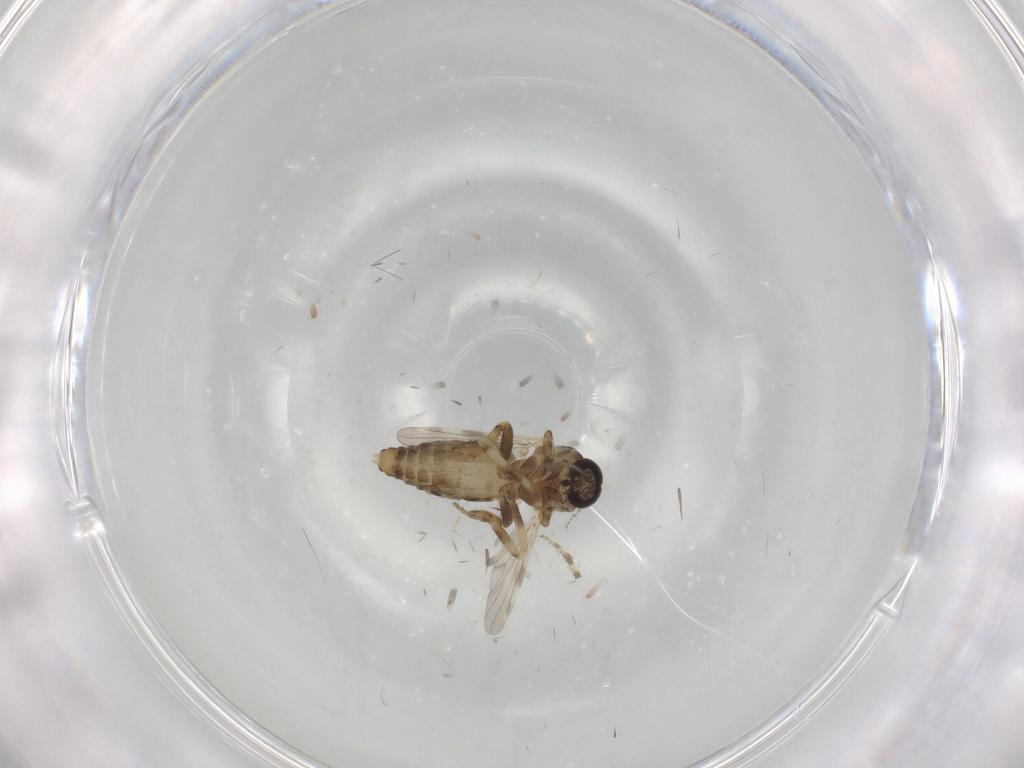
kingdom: Animalia
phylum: Arthropoda
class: Insecta
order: Diptera
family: Ceratopogonidae
